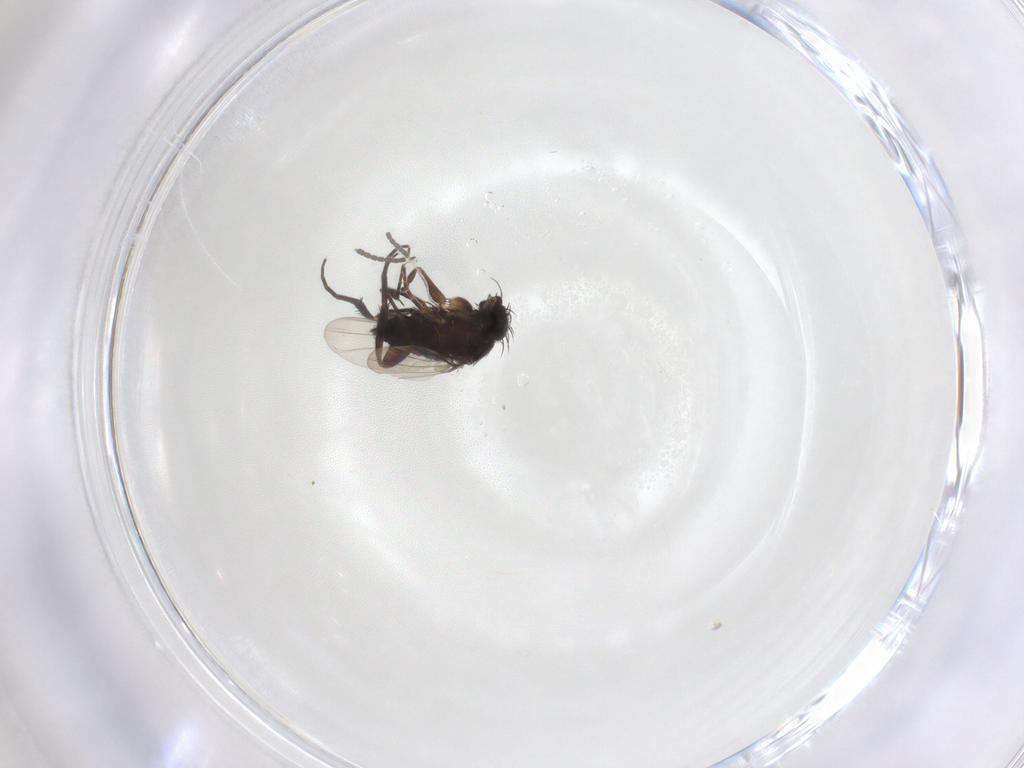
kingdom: Animalia
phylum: Arthropoda
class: Insecta
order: Diptera
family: Phoridae
